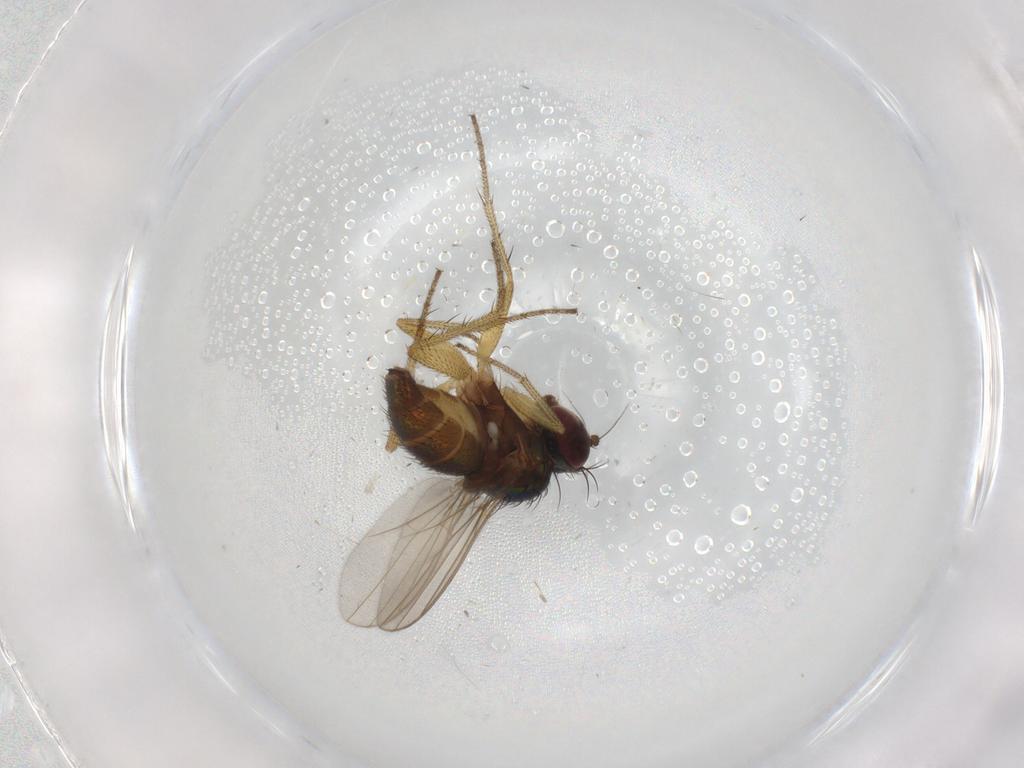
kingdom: Animalia
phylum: Arthropoda
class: Insecta
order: Diptera
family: Dolichopodidae
